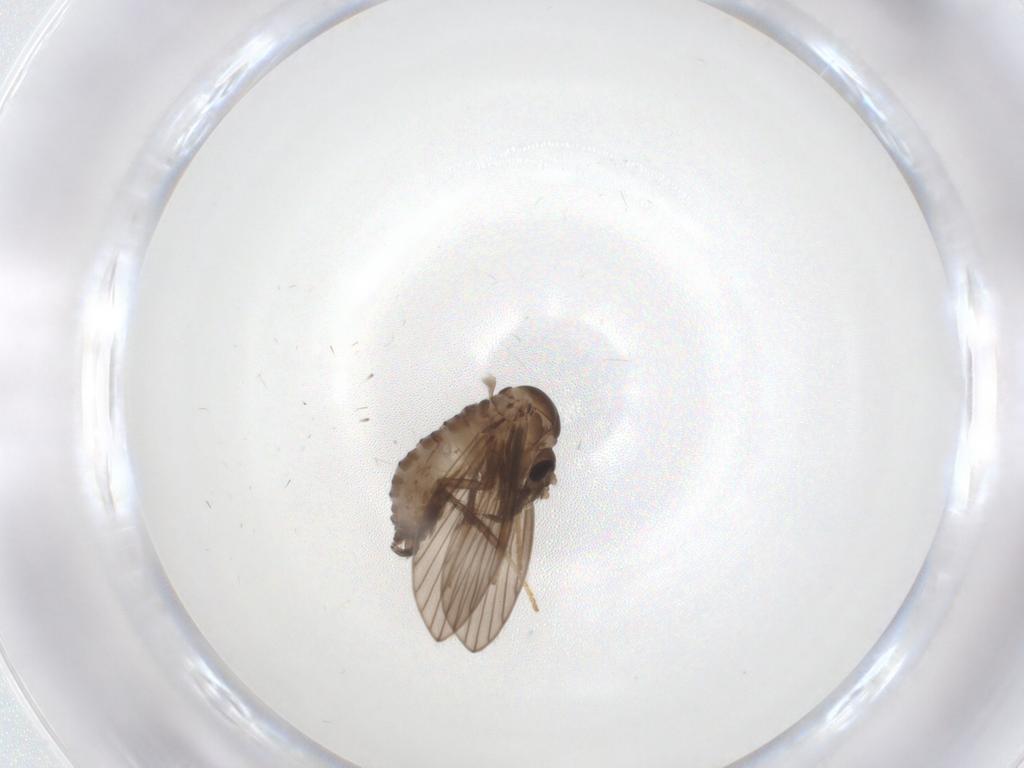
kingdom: Animalia
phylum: Arthropoda
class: Insecta
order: Diptera
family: Psychodidae
